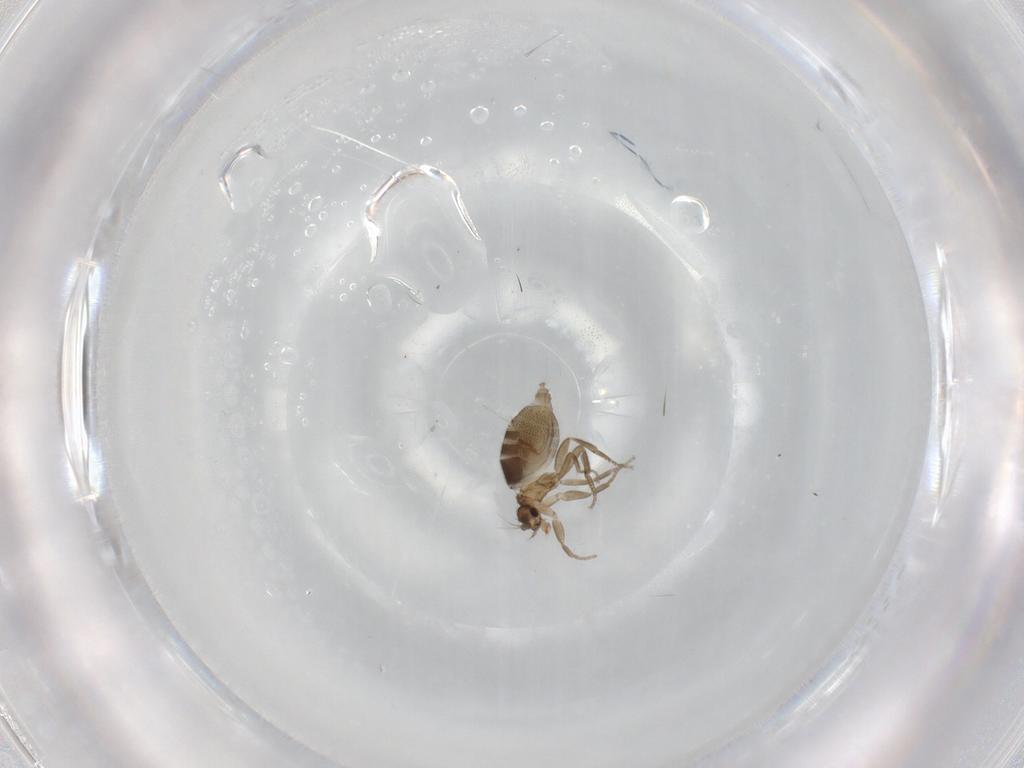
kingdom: Animalia
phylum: Arthropoda
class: Insecta
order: Diptera
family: Phoridae
